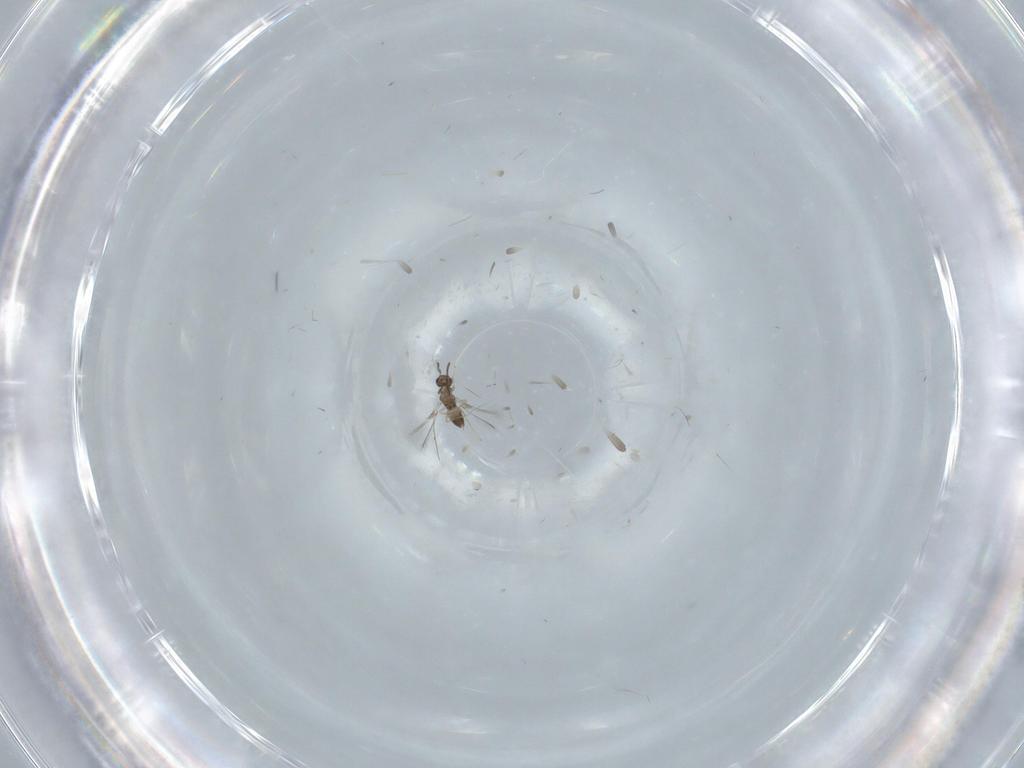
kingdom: Animalia
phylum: Arthropoda
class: Insecta
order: Hymenoptera
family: Mymaridae
